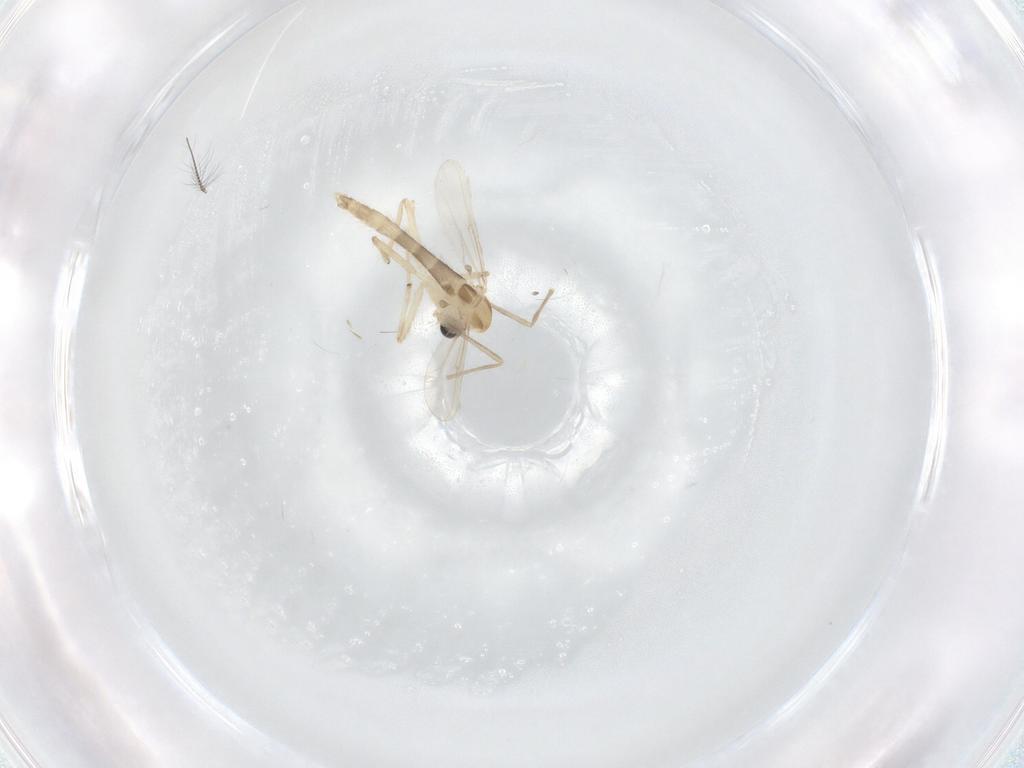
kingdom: Animalia
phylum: Arthropoda
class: Insecta
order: Diptera
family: Chironomidae
